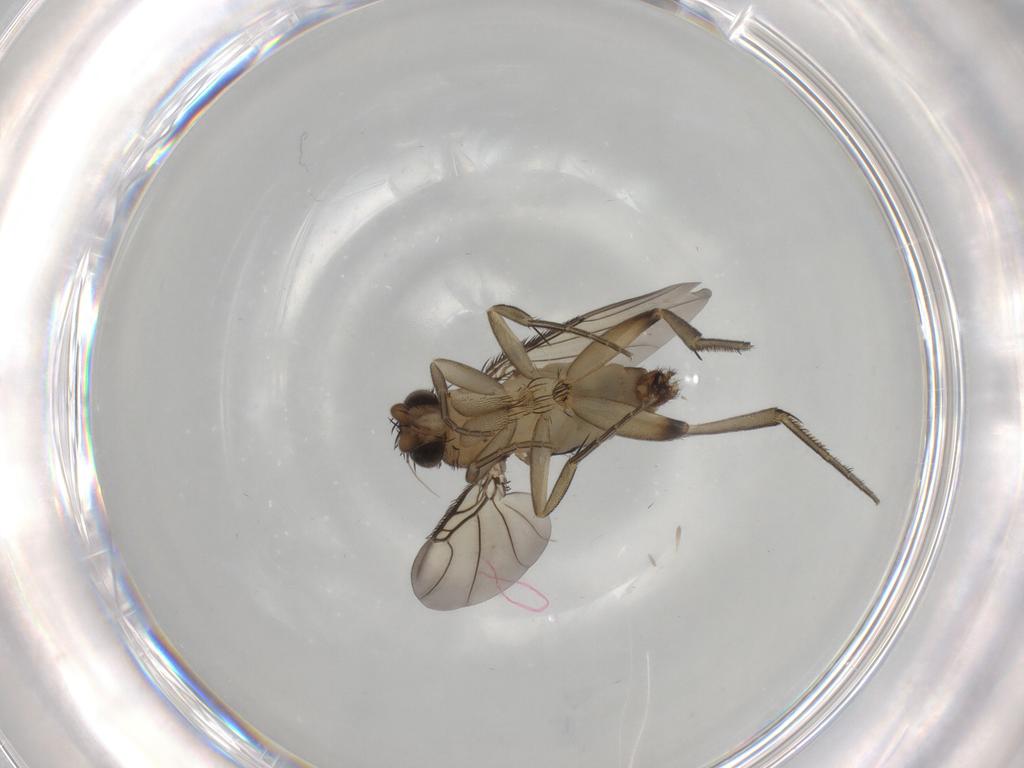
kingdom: Animalia
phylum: Arthropoda
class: Insecta
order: Diptera
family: Phoridae
